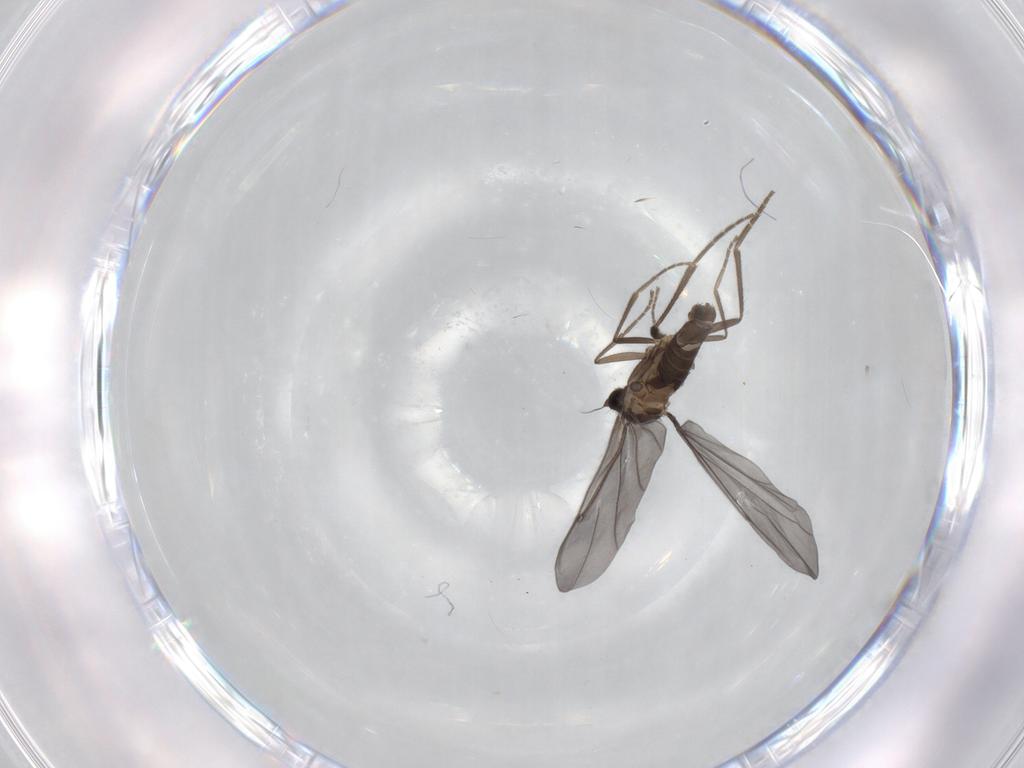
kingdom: Animalia
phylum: Arthropoda
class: Insecta
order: Diptera
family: Phoridae
